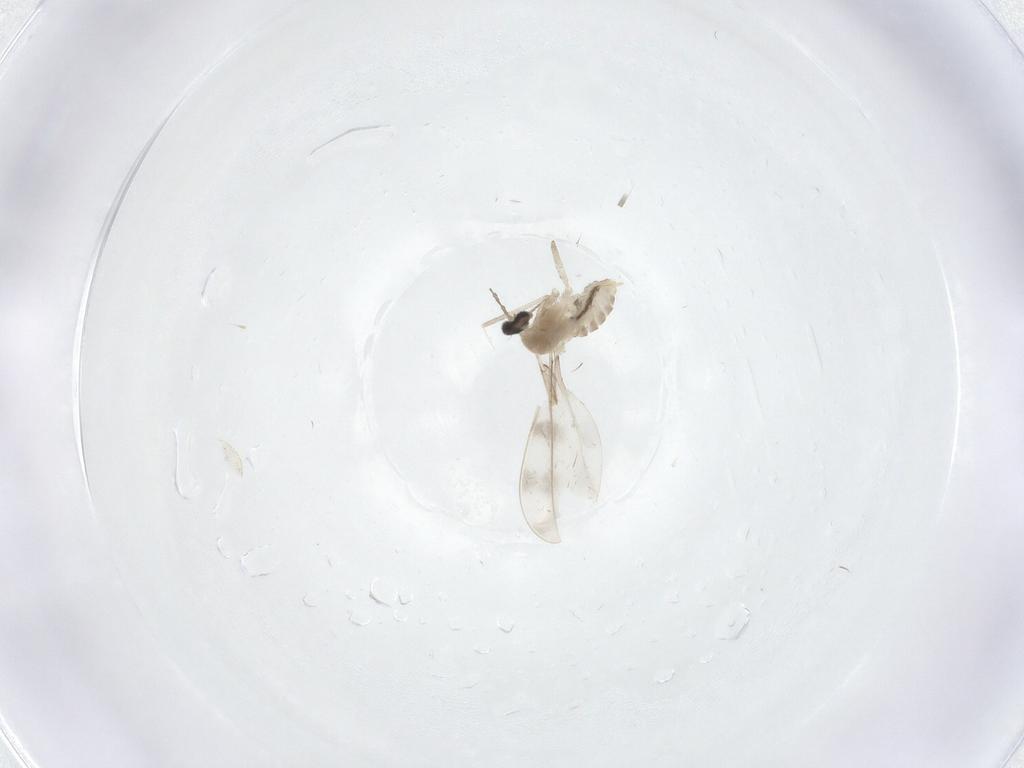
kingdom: Animalia
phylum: Arthropoda
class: Insecta
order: Diptera
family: Cecidomyiidae
